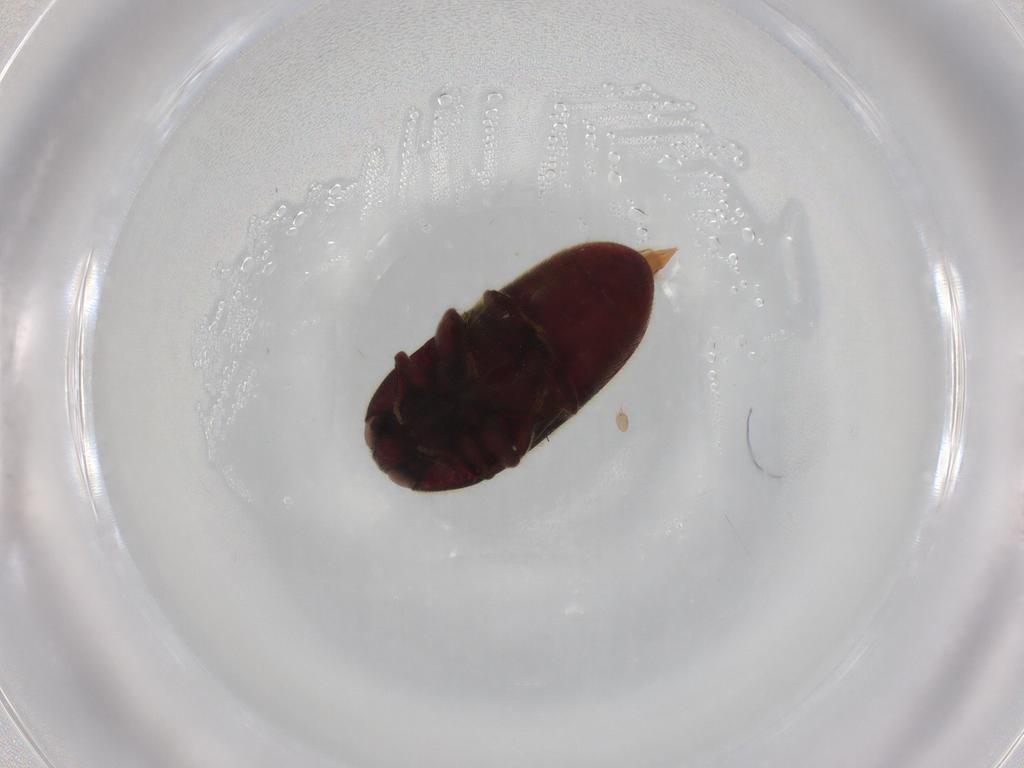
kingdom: Animalia
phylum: Arthropoda
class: Insecta
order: Coleoptera
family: Throscidae
